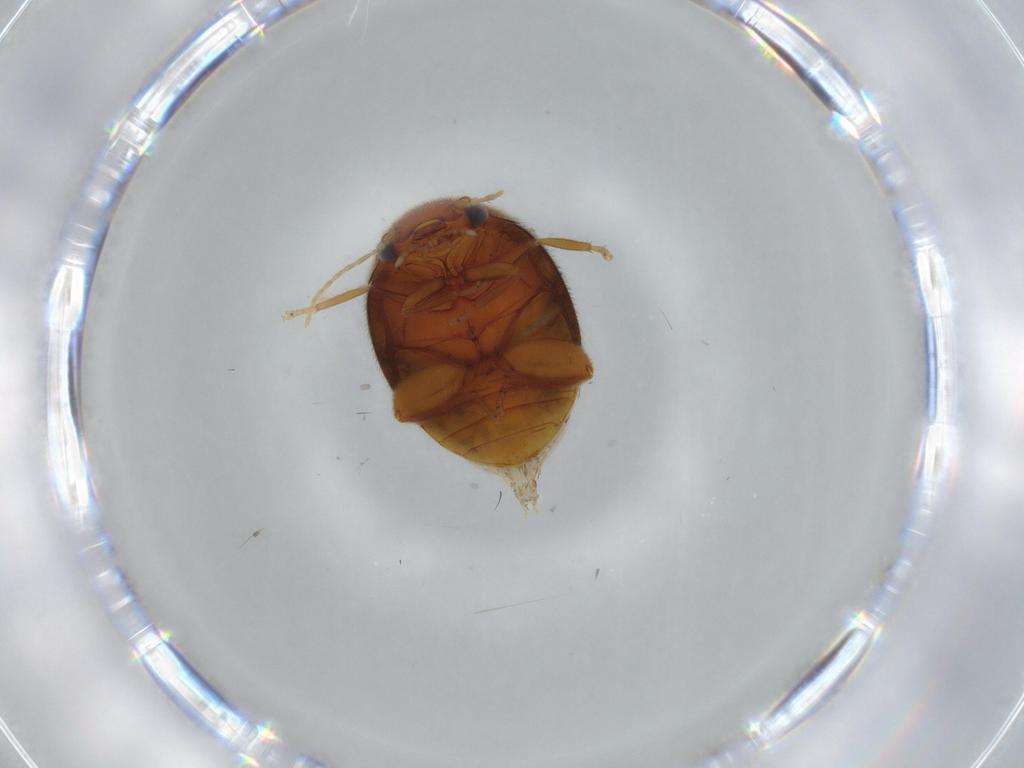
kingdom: Animalia
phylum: Arthropoda
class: Insecta
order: Coleoptera
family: Scirtidae
